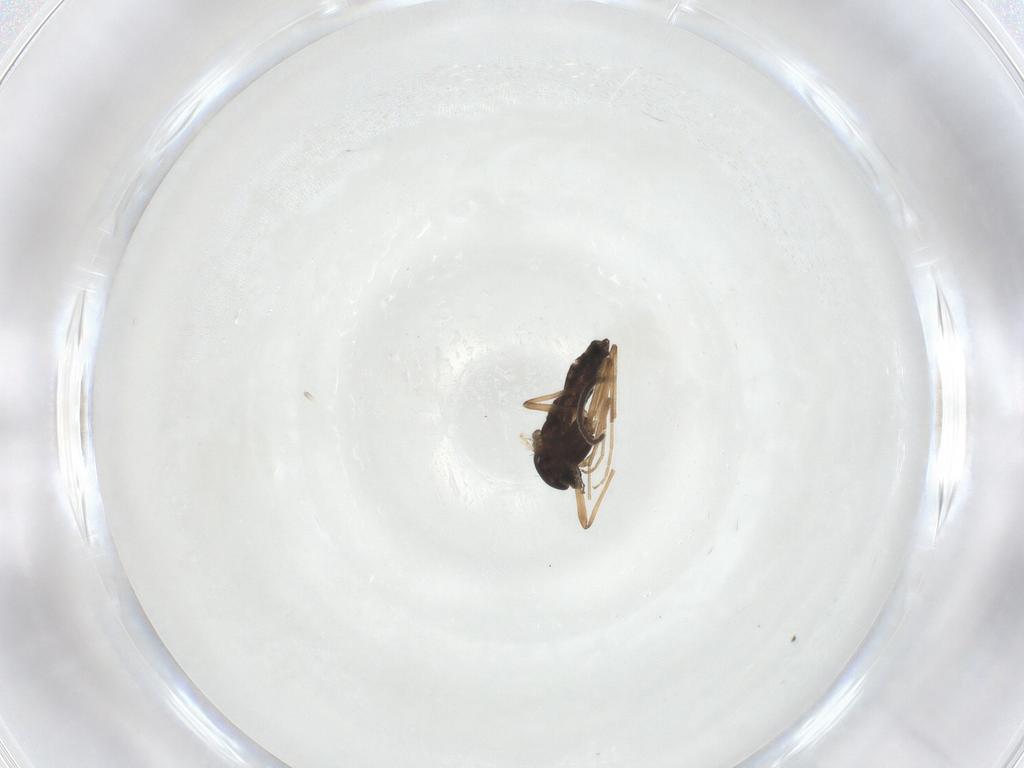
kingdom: Animalia
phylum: Arthropoda
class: Insecta
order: Diptera
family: Chironomidae
